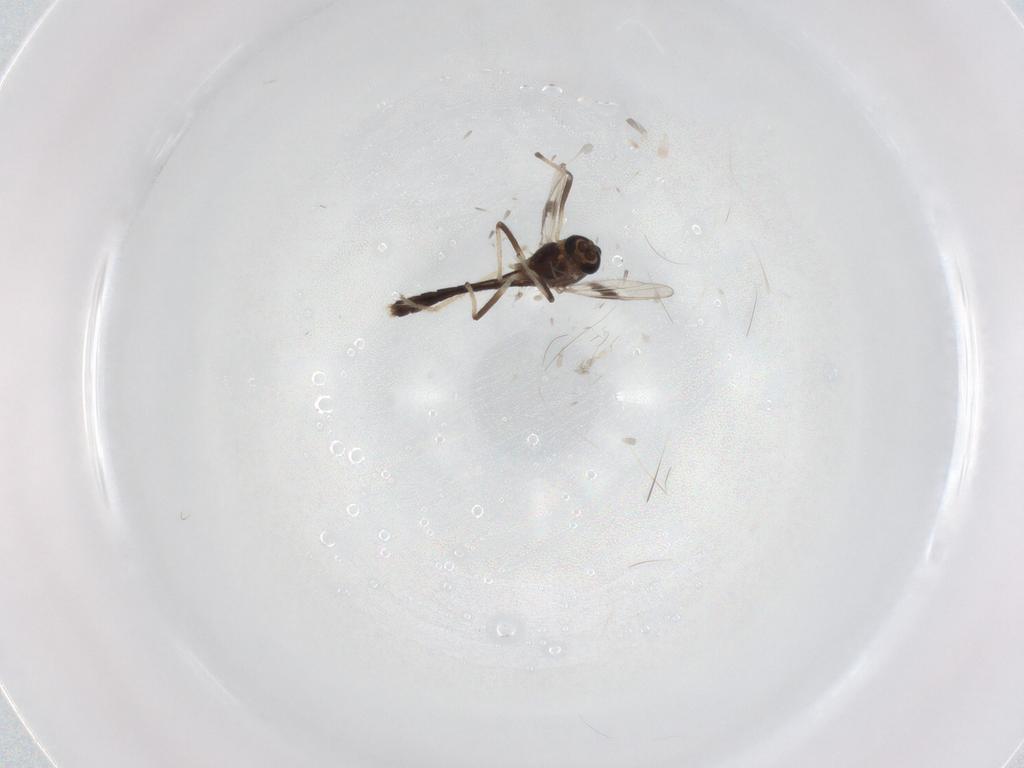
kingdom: Animalia
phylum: Arthropoda
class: Insecta
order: Diptera
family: Chironomidae
